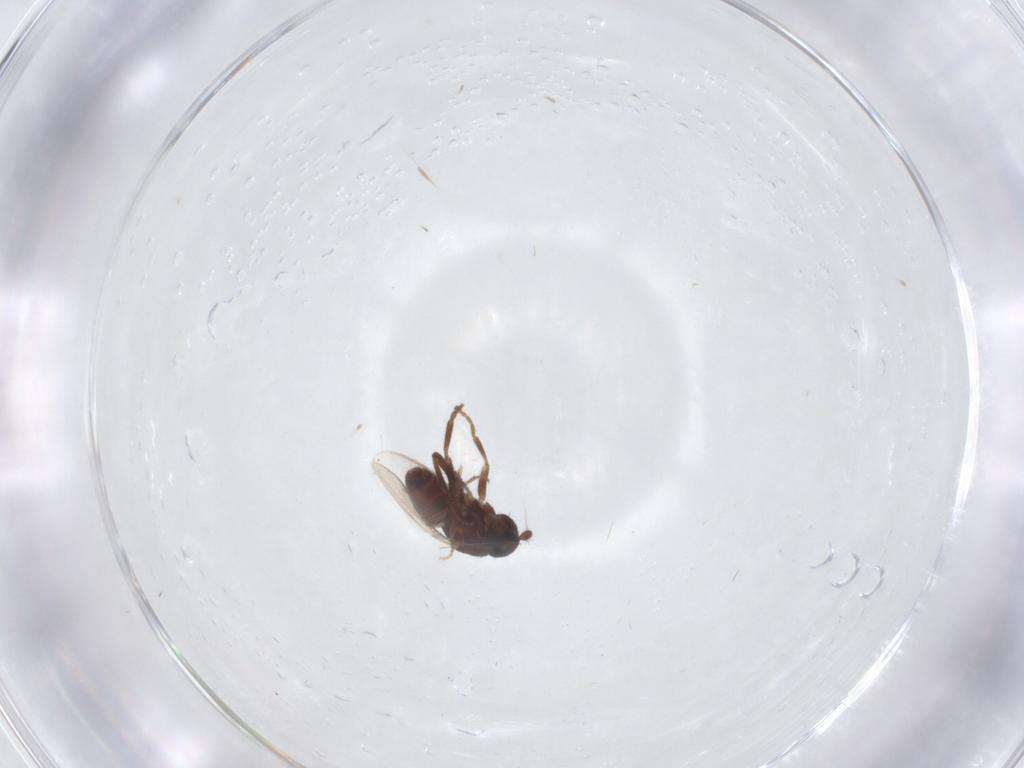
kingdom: Animalia
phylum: Arthropoda
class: Insecta
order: Diptera
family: Sphaeroceridae
